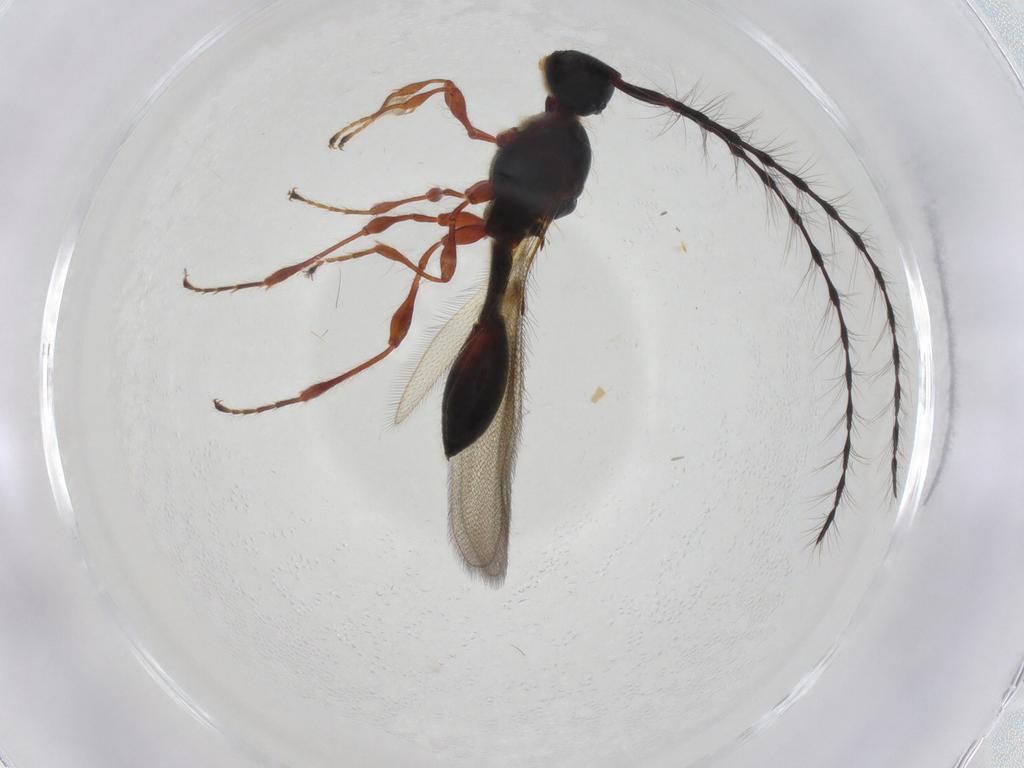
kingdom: Animalia
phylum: Arthropoda
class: Insecta
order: Hymenoptera
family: Diapriidae
